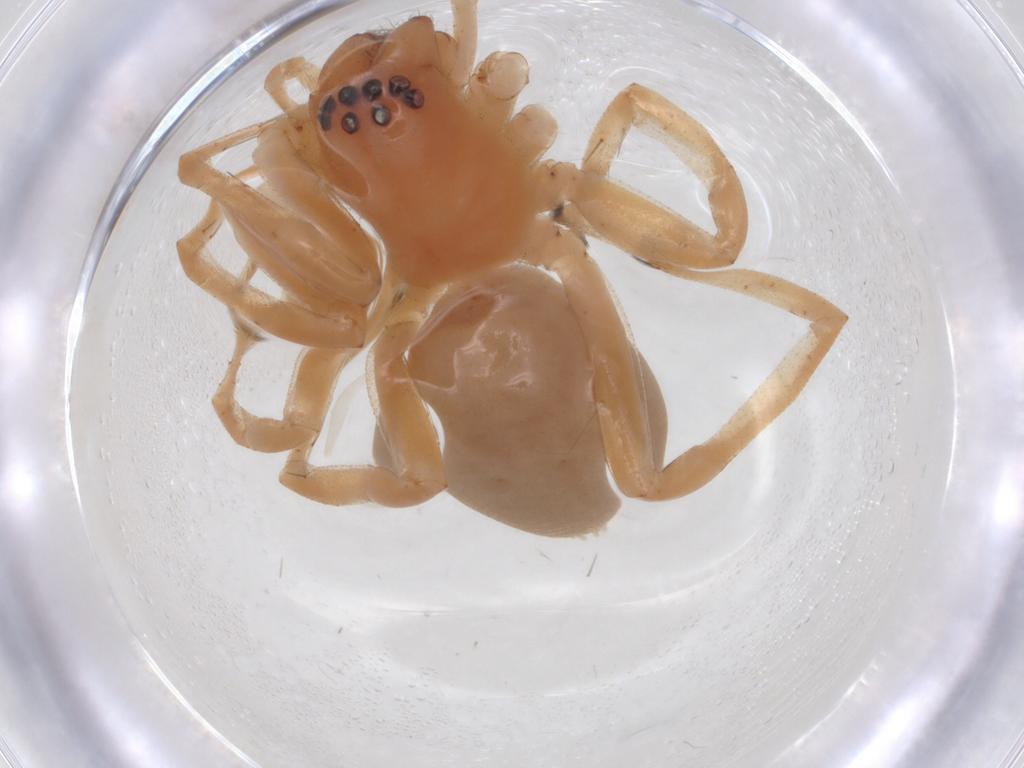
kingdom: Animalia
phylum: Arthropoda
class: Arachnida
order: Araneae
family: Cheiracanthiidae
